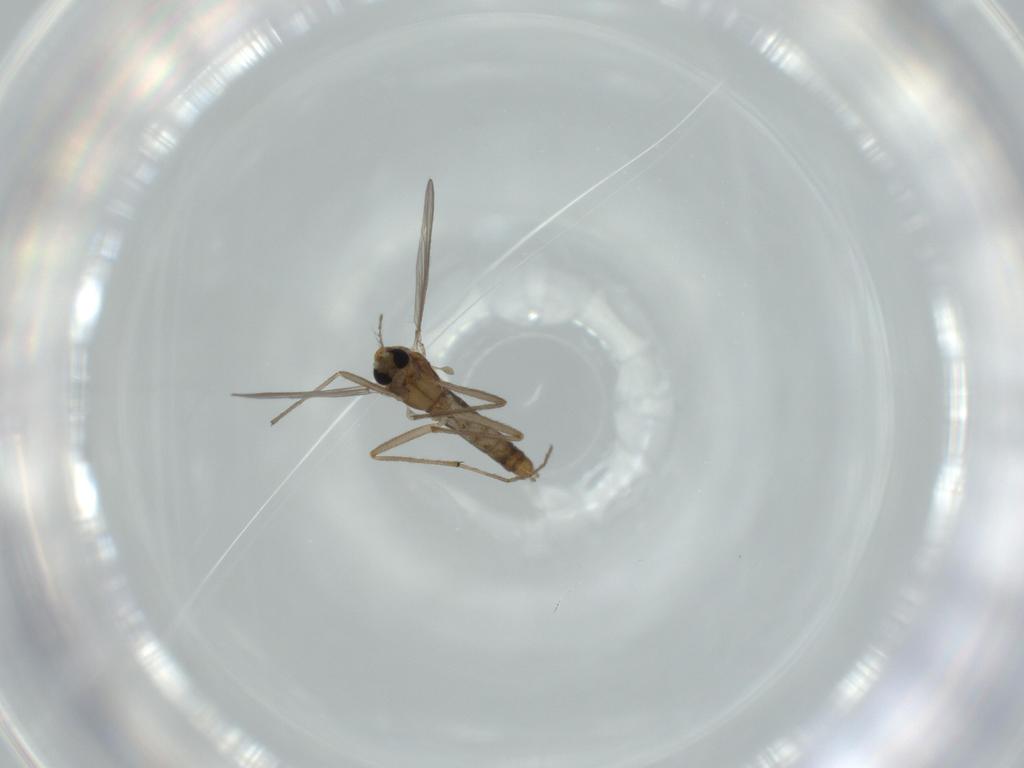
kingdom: Animalia
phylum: Arthropoda
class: Insecta
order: Diptera
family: Chironomidae
